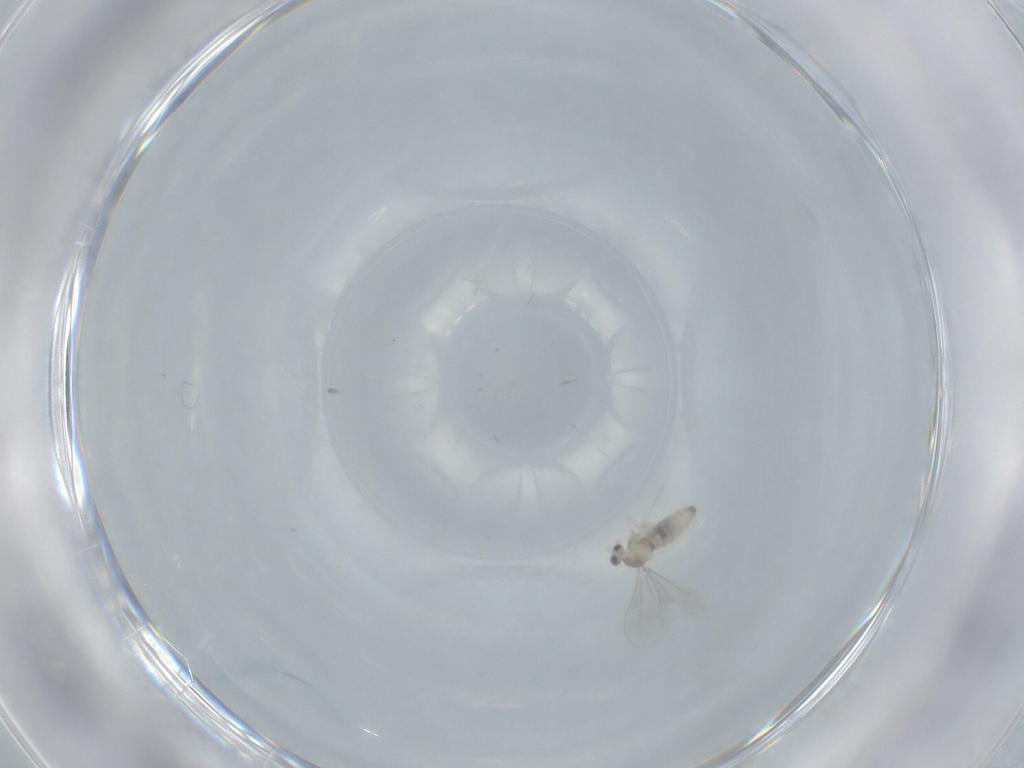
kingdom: Animalia
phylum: Arthropoda
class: Insecta
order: Diptera
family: Cecidomyiidae
